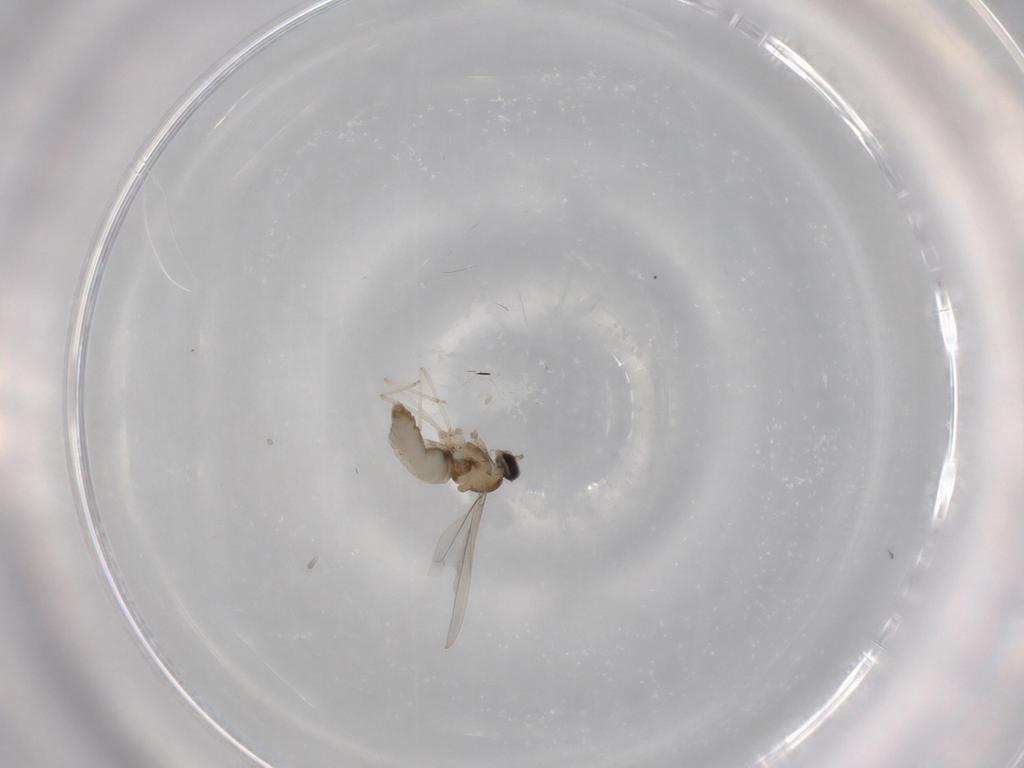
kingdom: Animalia
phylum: Arthropoda
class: Insecta
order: Diptera
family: Cecidomyiidae
